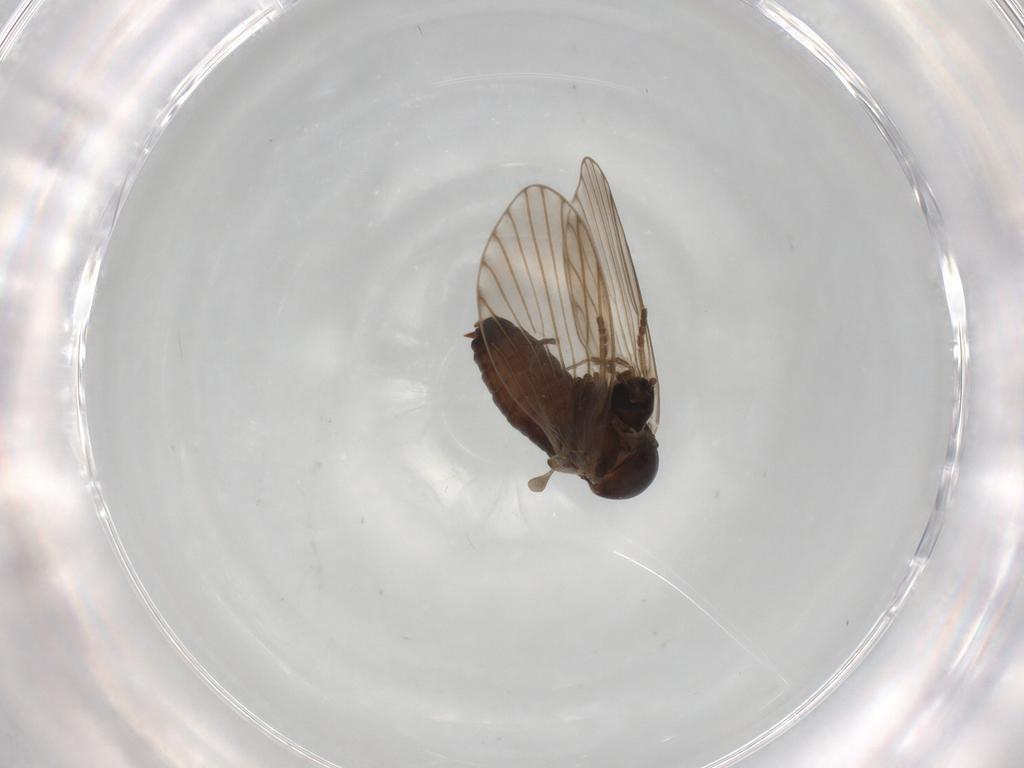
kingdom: Animalia
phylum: Arthropoda
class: Insecta
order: Diptera
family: Psychodidae
